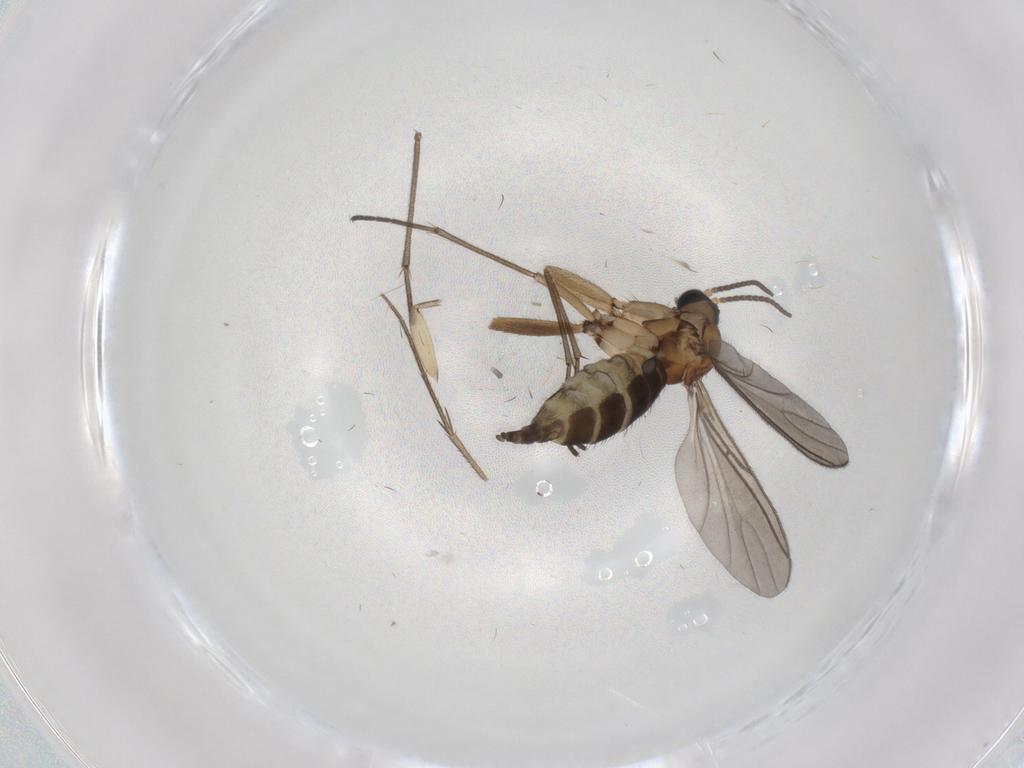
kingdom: Animalia
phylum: Arthropoda
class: Insecta
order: Diptera
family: Sciaridae
